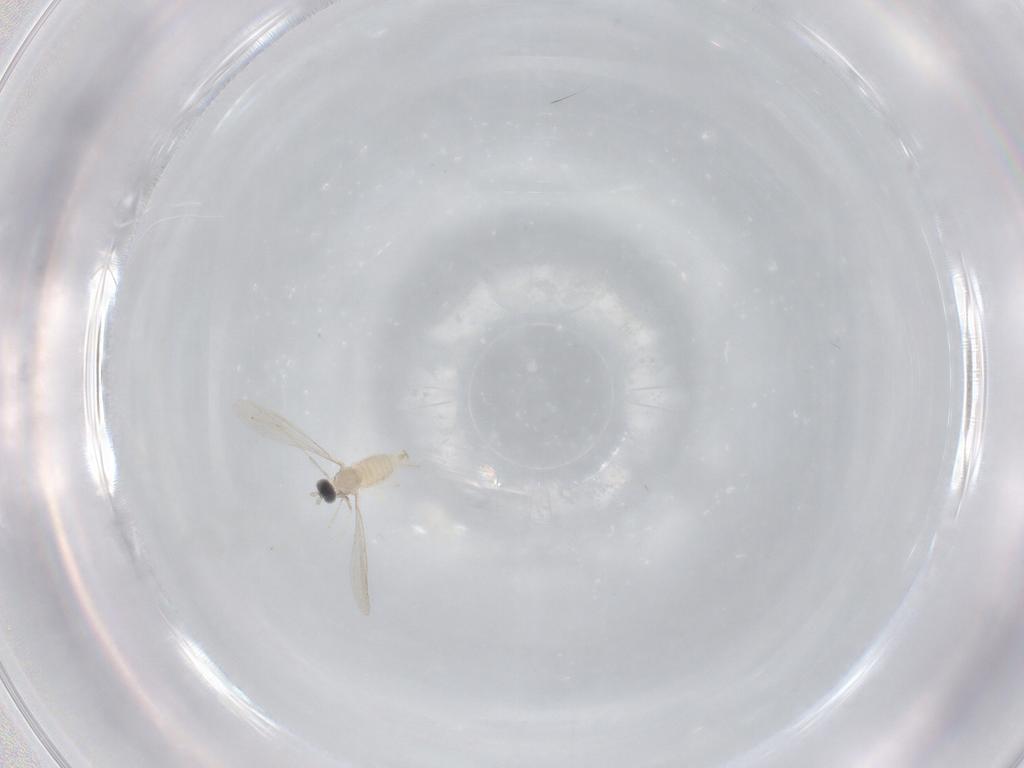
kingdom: Animalia
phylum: Arthropoda
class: Insecta
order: Diptera
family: Cecidomyiidae
